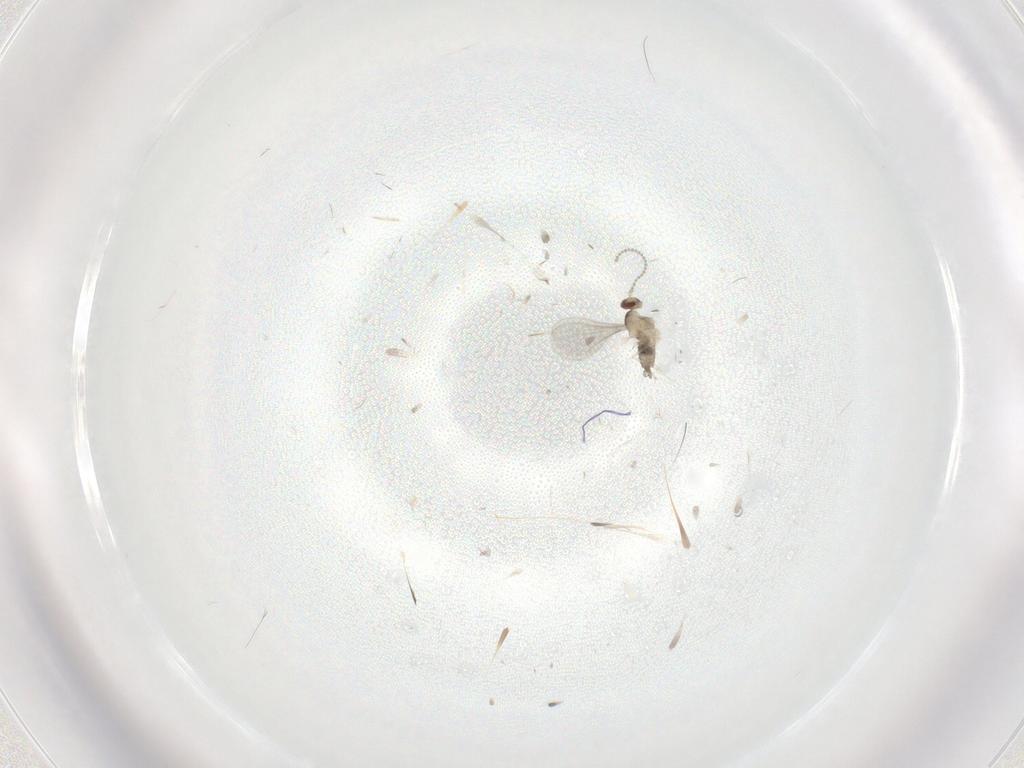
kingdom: Animalia
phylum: Arthropoda
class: Insecta
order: Diptera
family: Cecidomyiidae
